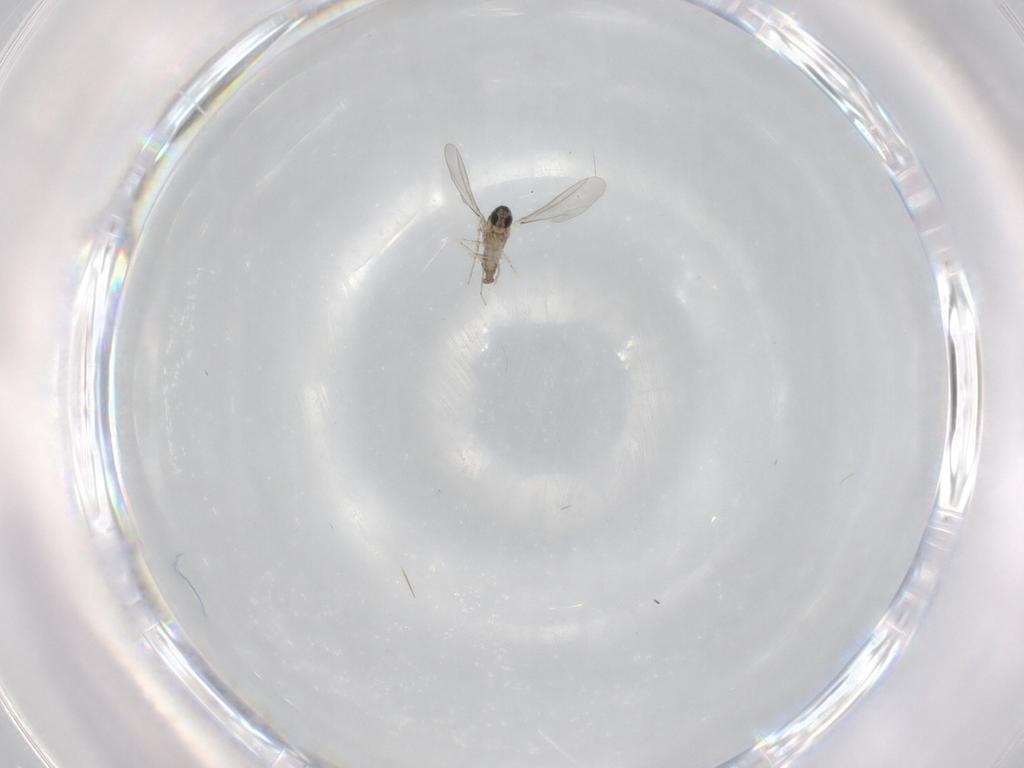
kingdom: Animalia
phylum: Arthropoda
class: Insecta
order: Diptera
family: Cecidomyiidae
